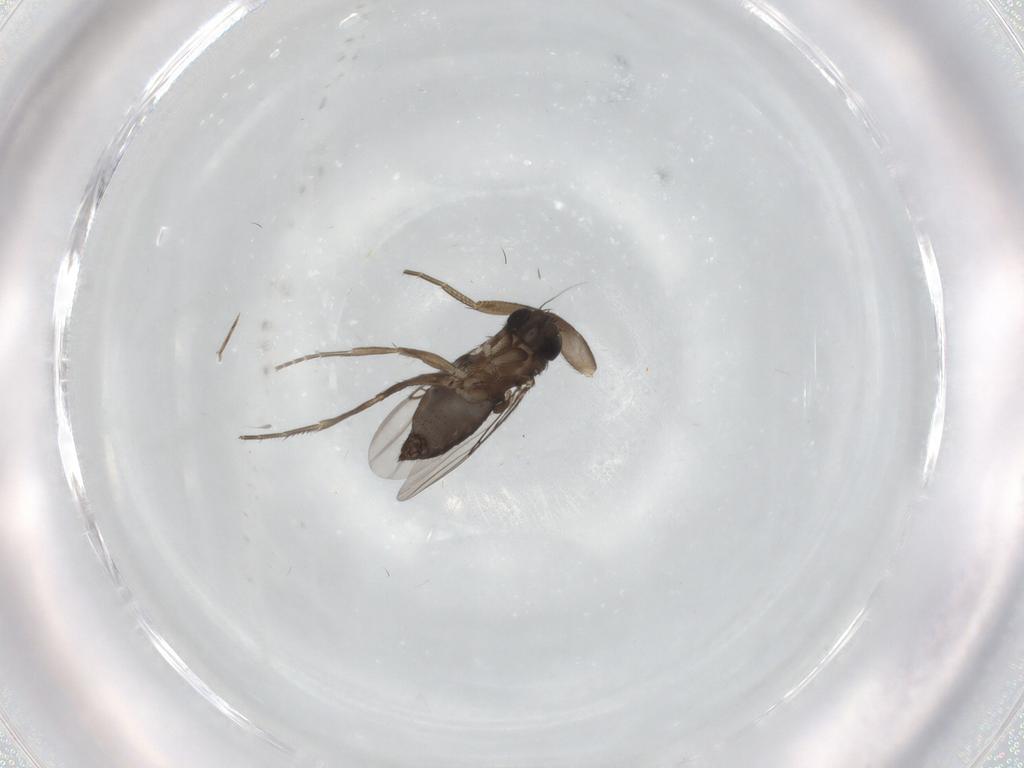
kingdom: Animalia
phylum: Arthropoda
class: Insecta
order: Diptera
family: Phoridae
